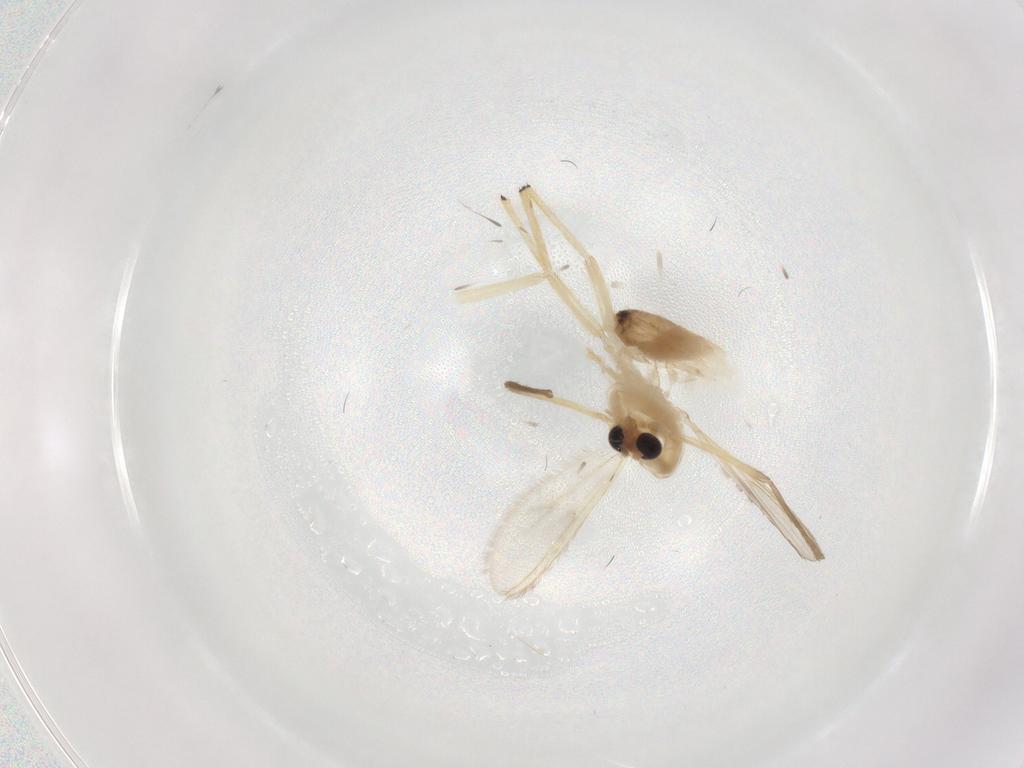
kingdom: Animalia
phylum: Arthropoda
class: Insecta
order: Diptera
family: Chironomidae
